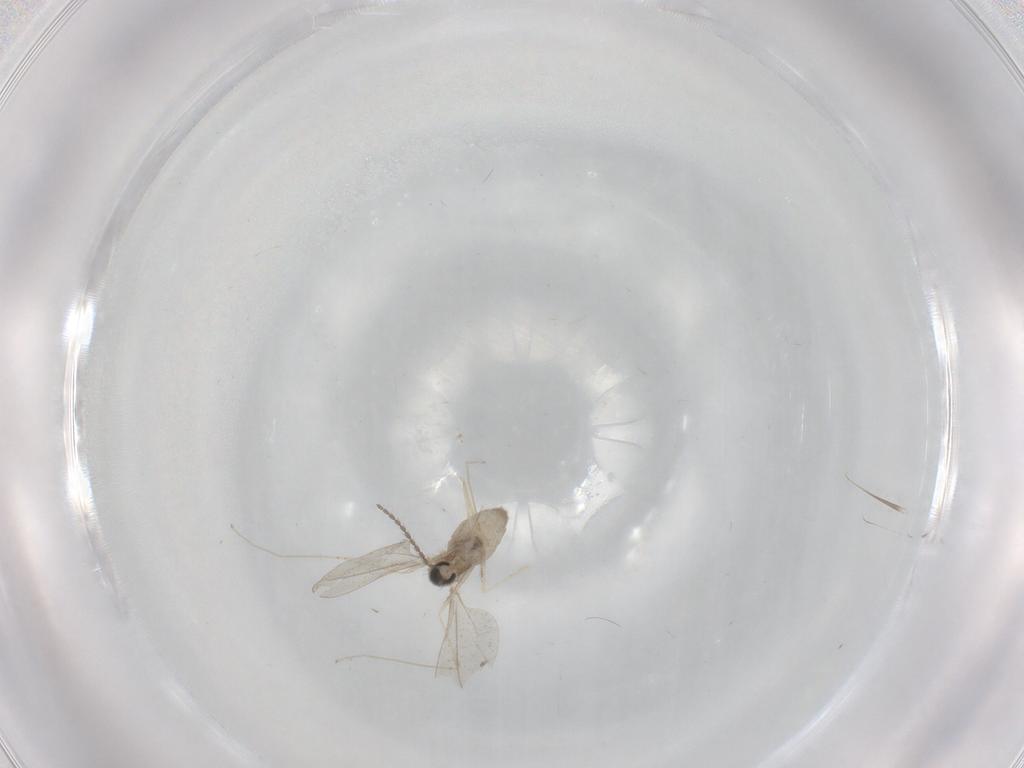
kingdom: Animalia
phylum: Arthropoda
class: Insecta
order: Diptera
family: Cecidomyiidae
